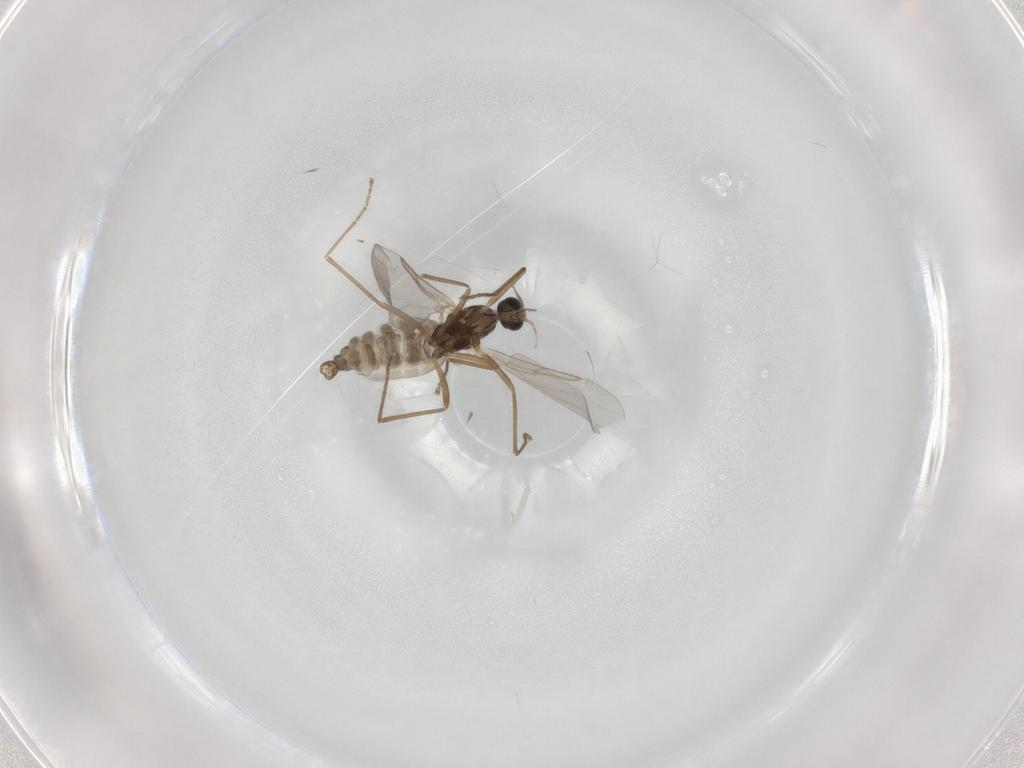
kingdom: Animalia
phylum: Arthropoda
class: Insecta
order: Diptera
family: Cecidomyiidae
